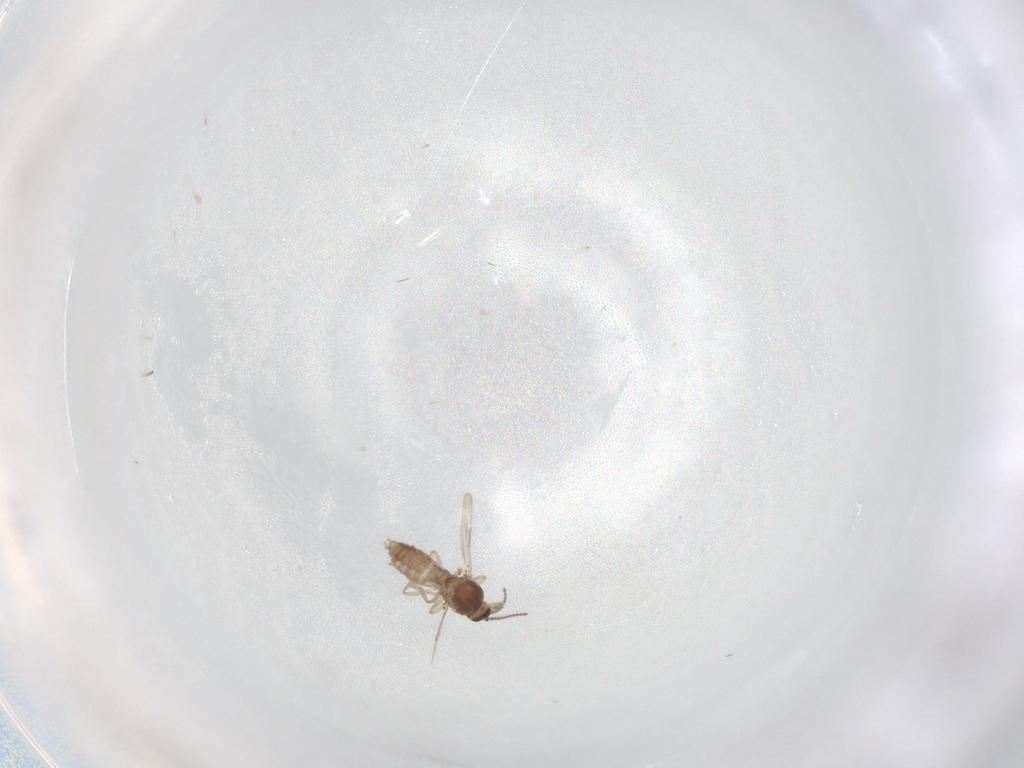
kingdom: Animalia
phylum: Arthropoda
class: Insecta
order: Diptera
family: Ceratopogonidae
